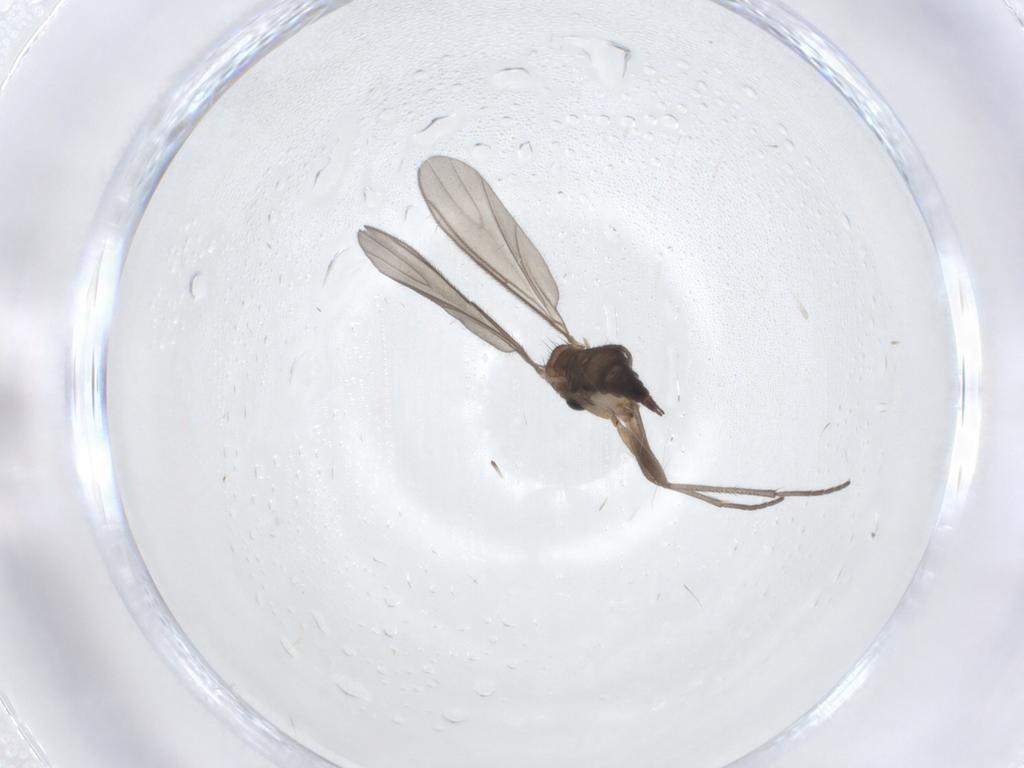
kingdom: Animalia
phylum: Arthropoda
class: Insecta
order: Diptera
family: Sciaridae
